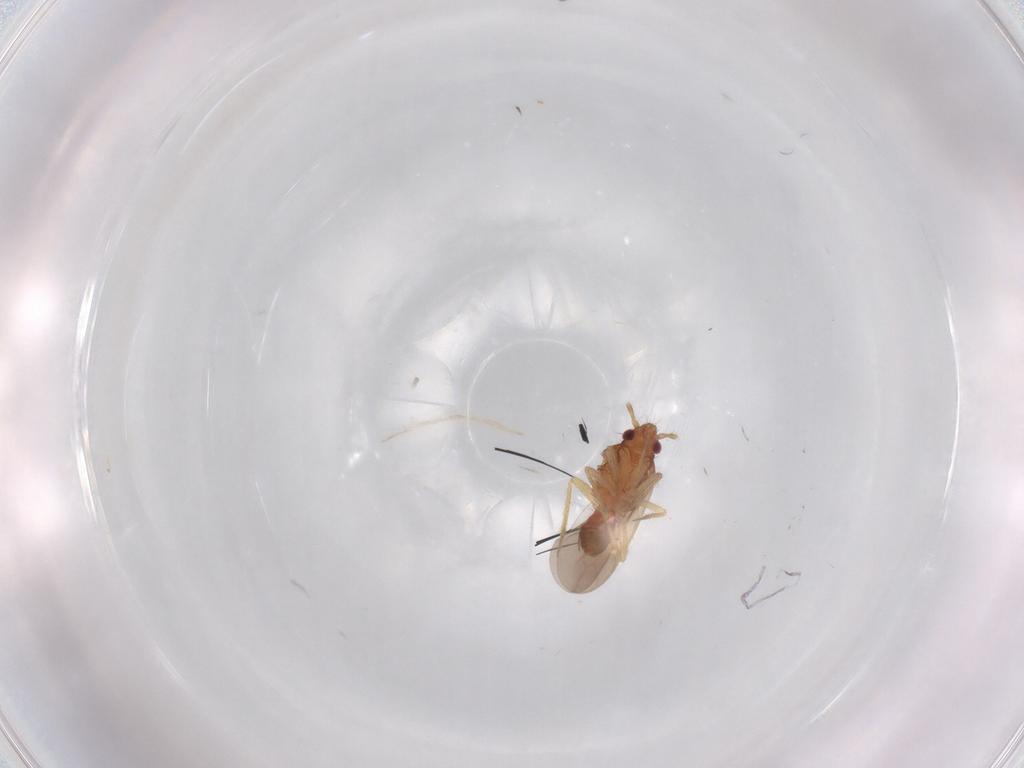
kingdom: Animalia
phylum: Arthropoda
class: Insecta
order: Hemiptera
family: Ceratocombidae
